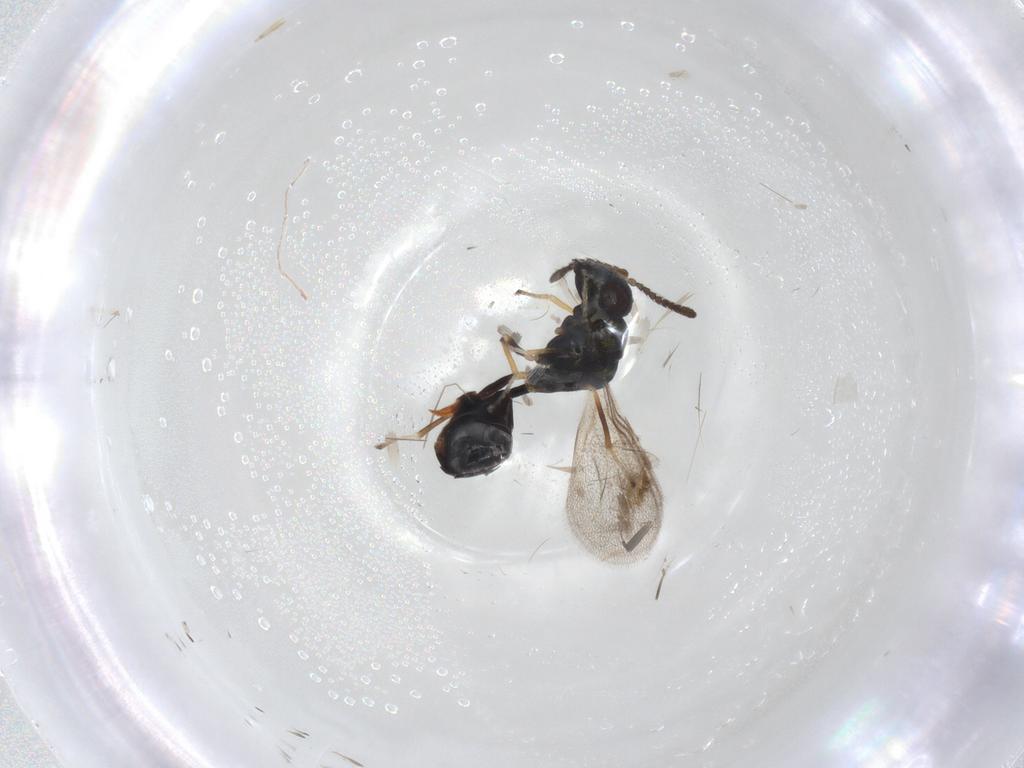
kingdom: Animalia
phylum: Arthropoda
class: Insecta
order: Hymenoptera
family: Eucharitidae
